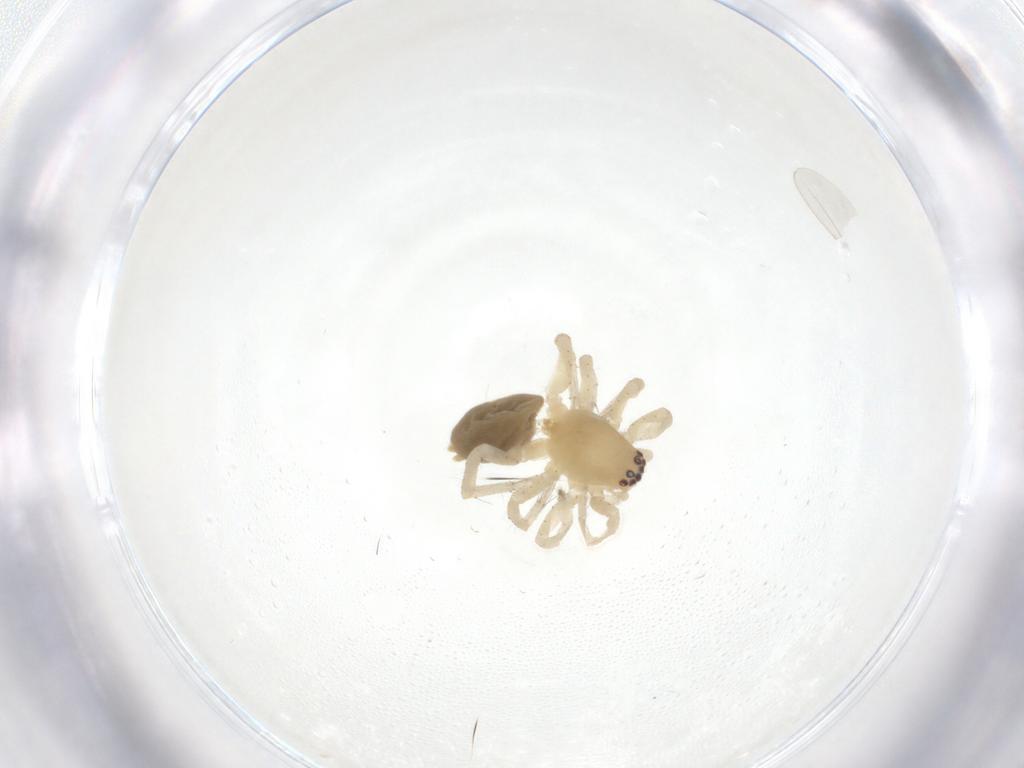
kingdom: Animalia
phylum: Arthropoda
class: Arachnida
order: Araneae
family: Clubionidae
